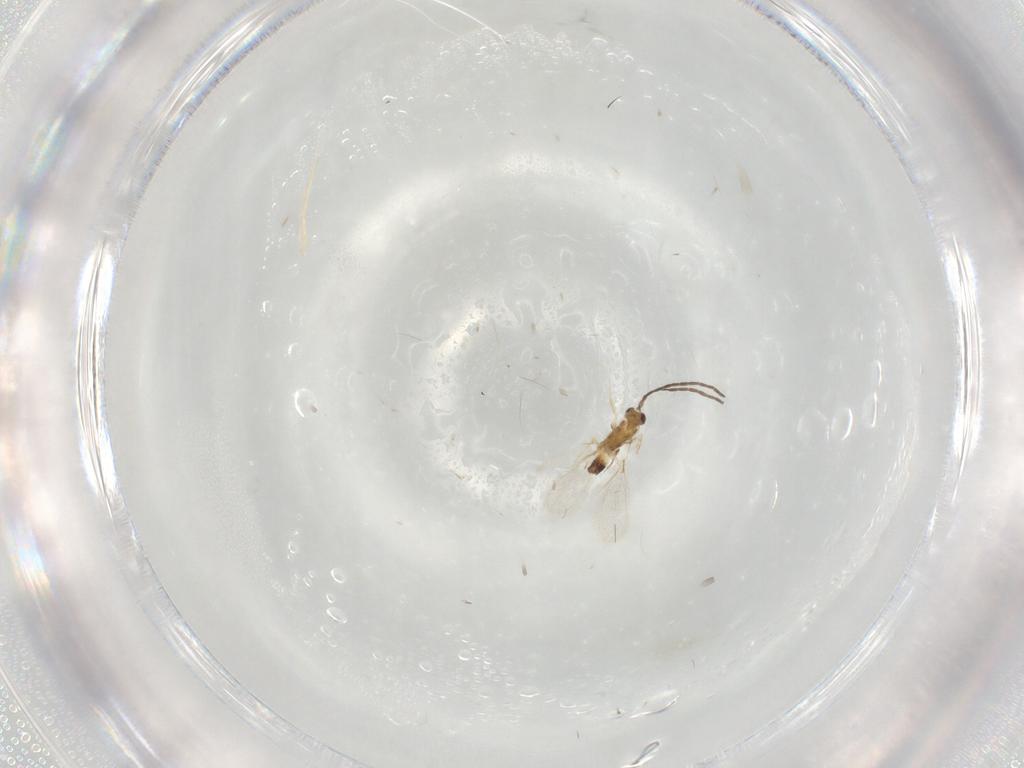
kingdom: Animalia
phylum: Arthropoda
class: Insecta
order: Hymenoptera
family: Mymaridae
